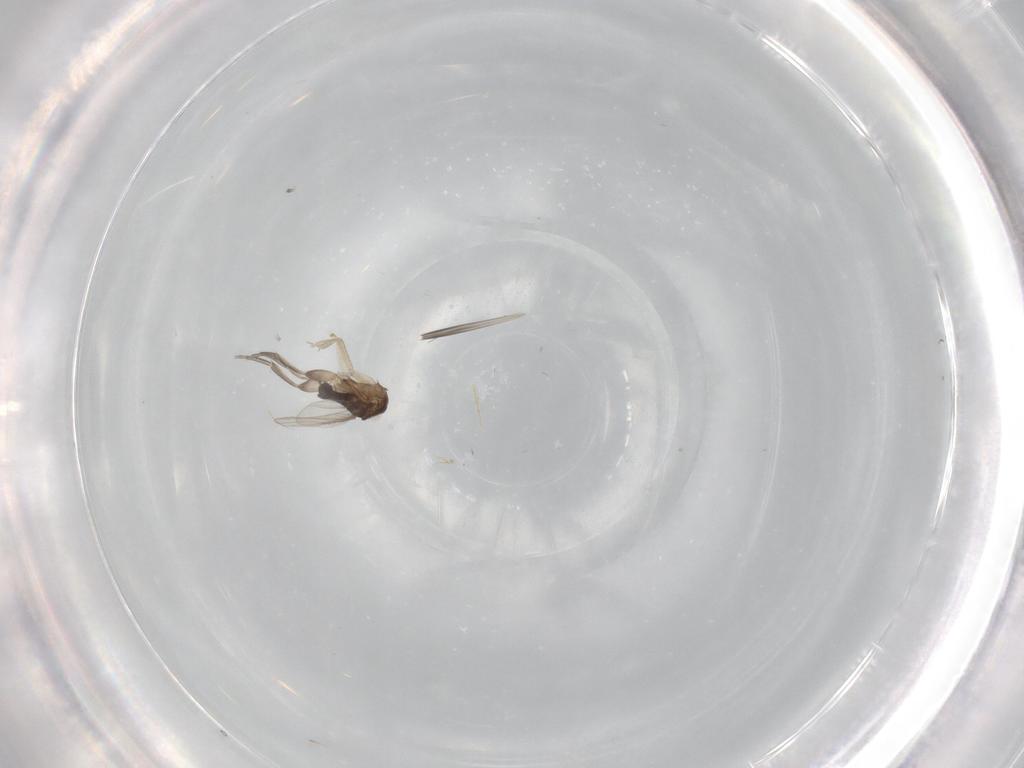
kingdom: Animalia
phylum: Arthropoda
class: Insecta
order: Diptera
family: Phoridae
